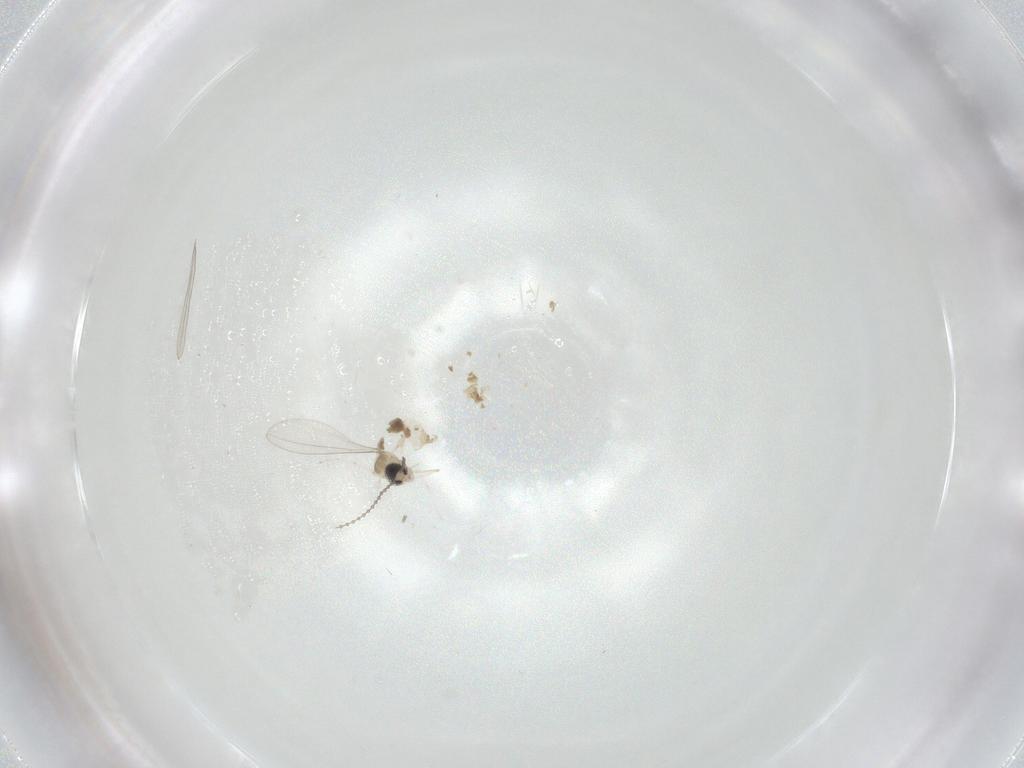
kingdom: Animalia
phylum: Arthropoda
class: Insecta
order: Diptera
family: Cecidomyiidae
